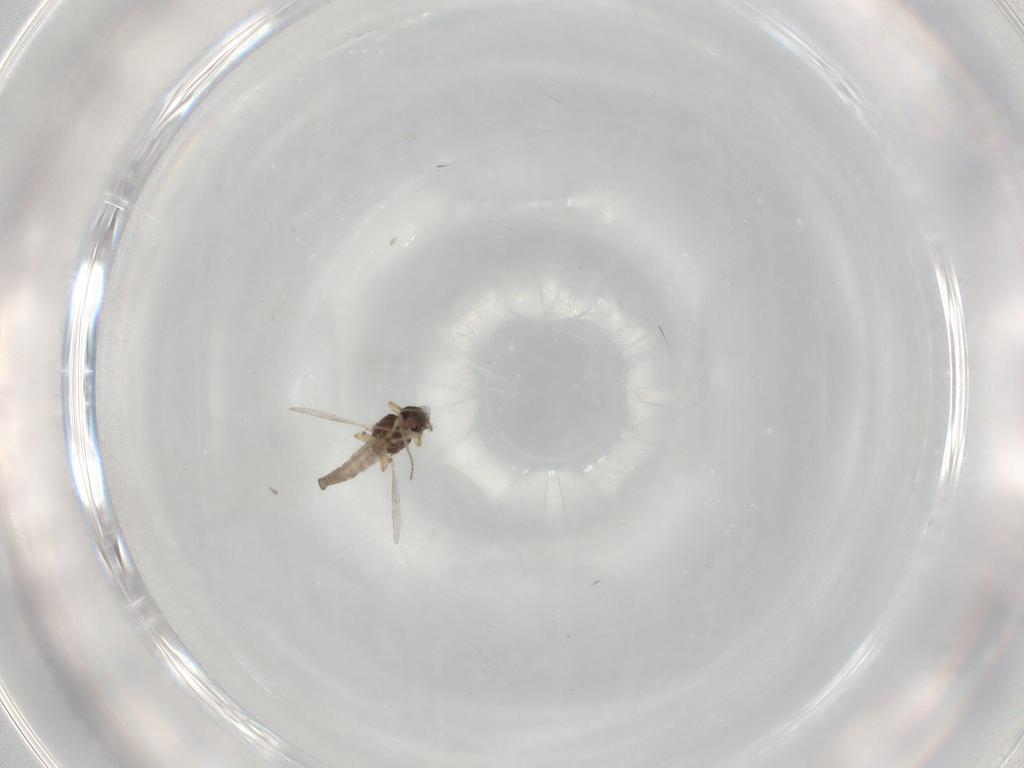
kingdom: Animalia
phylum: Arthropoda
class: Insecta
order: Diptera
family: Ceratopogonidae
